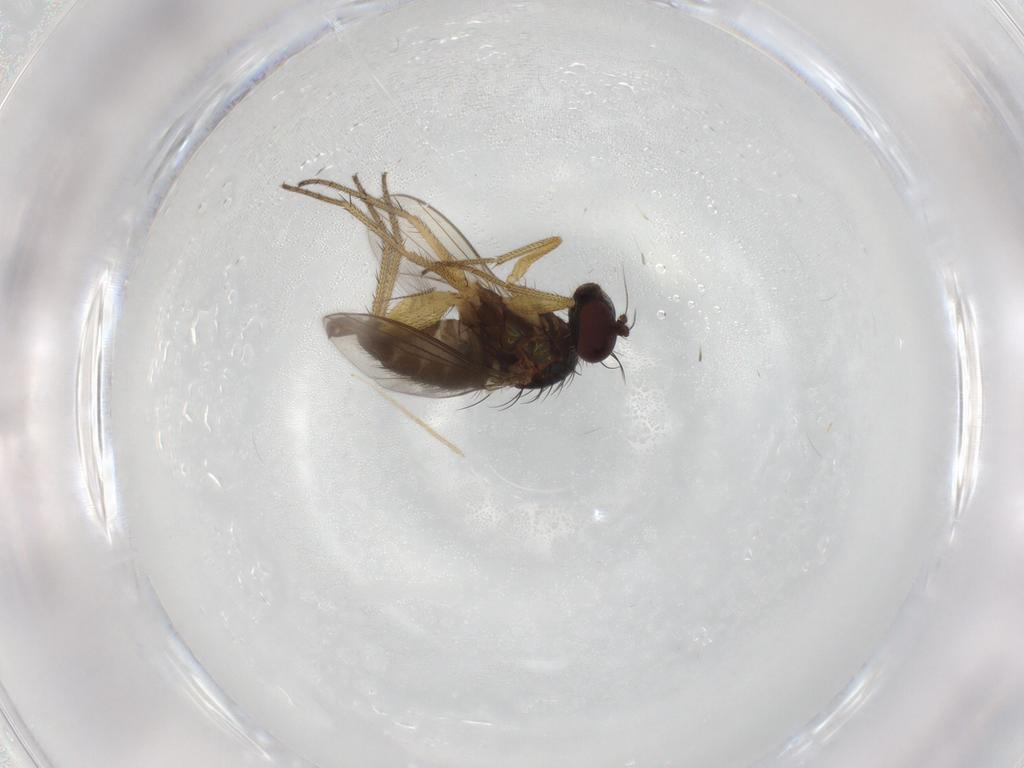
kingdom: Animalia
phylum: Arthropoda
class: Insecta
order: Diptera
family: Chironomidae
